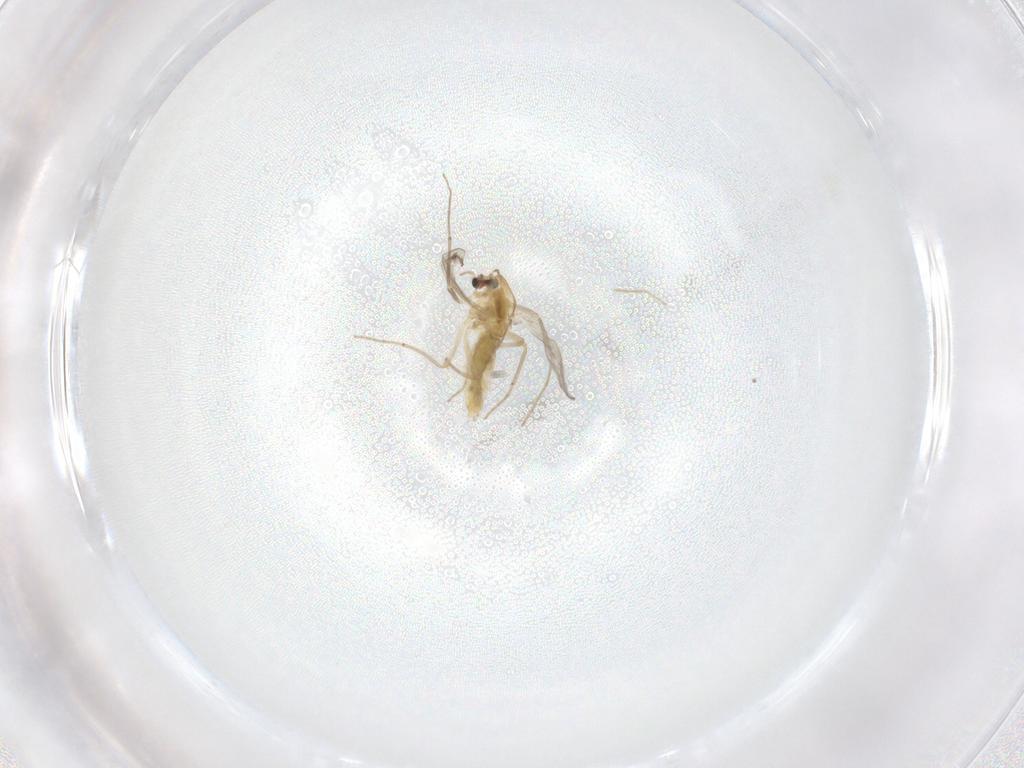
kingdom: Animalia
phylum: Arthropoda
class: Insecta
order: Diptera
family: Chironomidae
